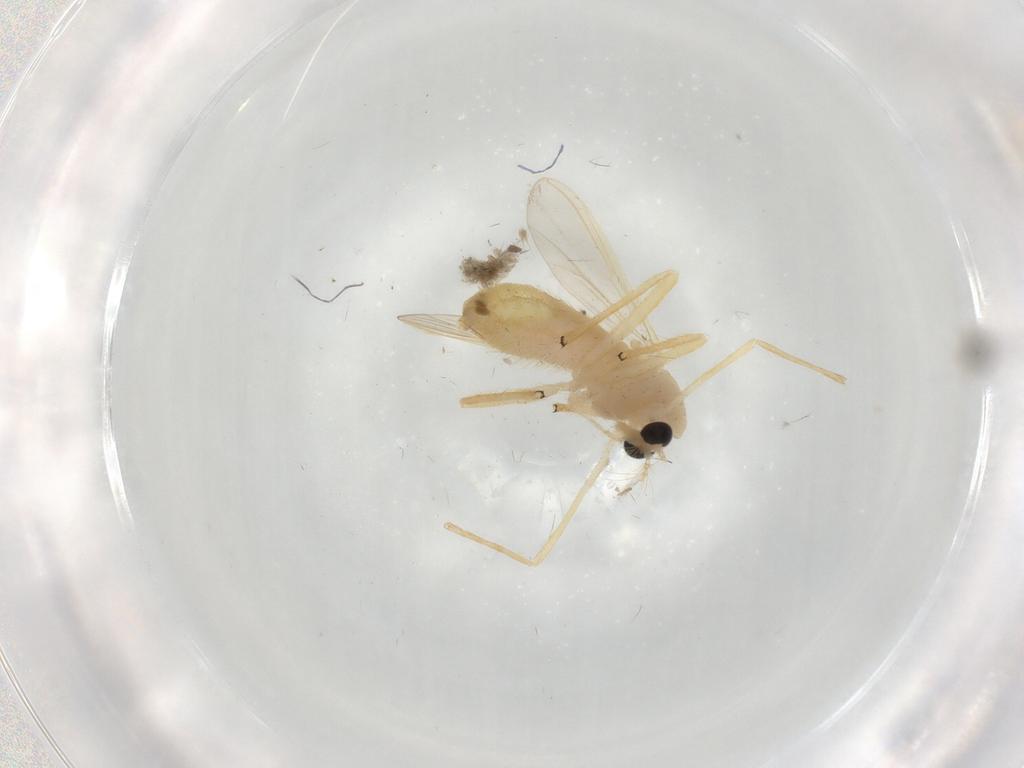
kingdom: Animalia
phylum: Arthropoda
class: Insecta
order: Diptera
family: Chironomidae
